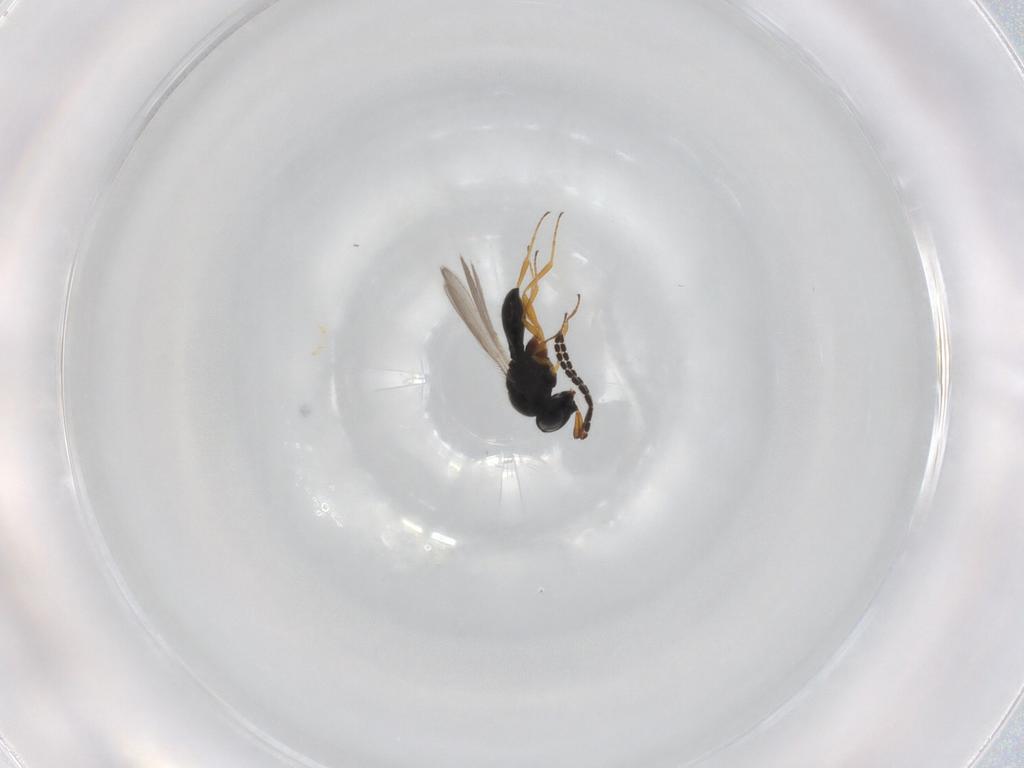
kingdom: Animalia
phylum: Arthropoda
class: Insecta
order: Hymenoptera
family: Scelionidae
